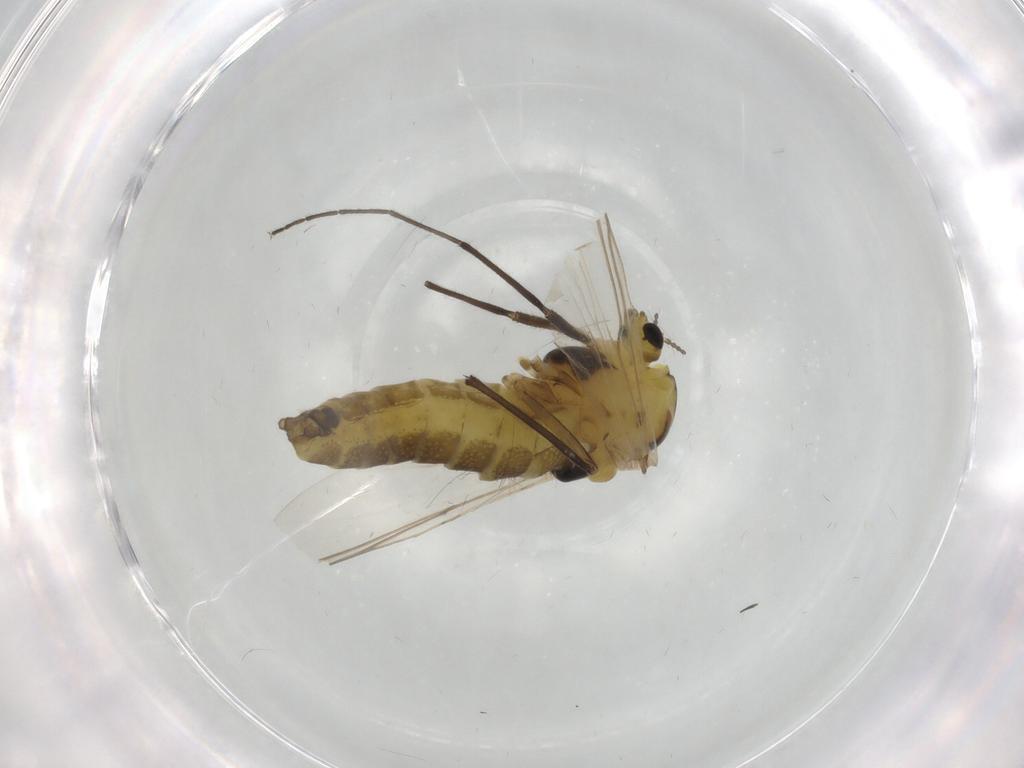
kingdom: Animalia
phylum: Arthropoda
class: Insecta
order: Diptera
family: Chironomidae
